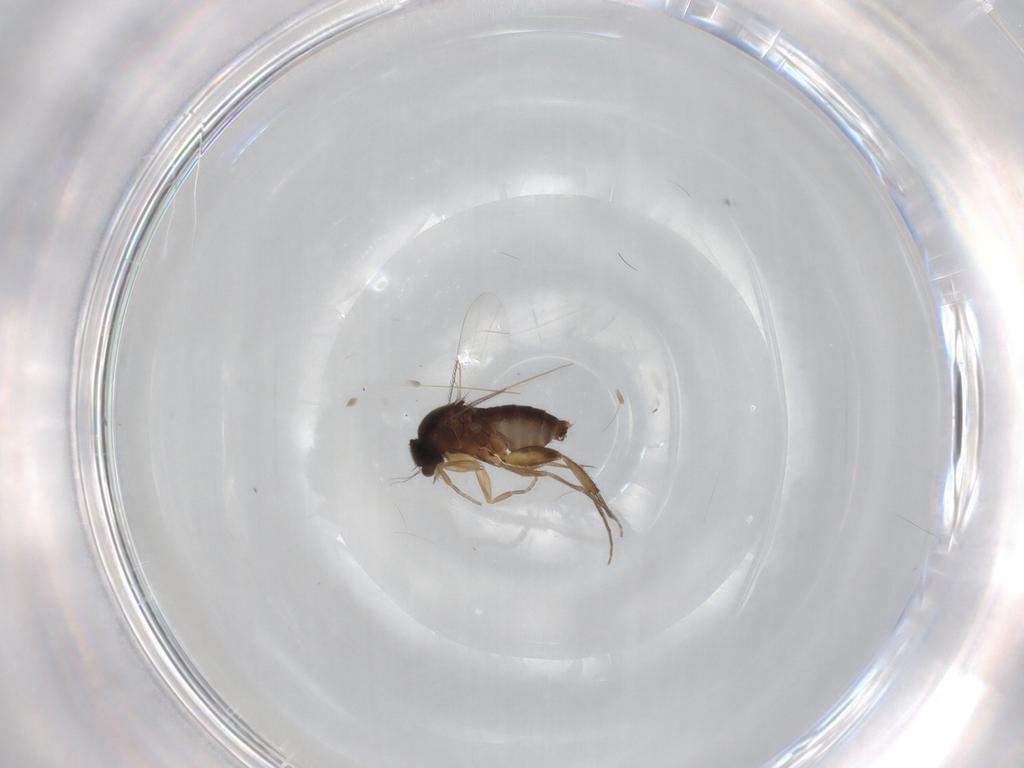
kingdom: Animalia
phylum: Arthropoda
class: Insecta
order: Diptera
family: Phoridae
